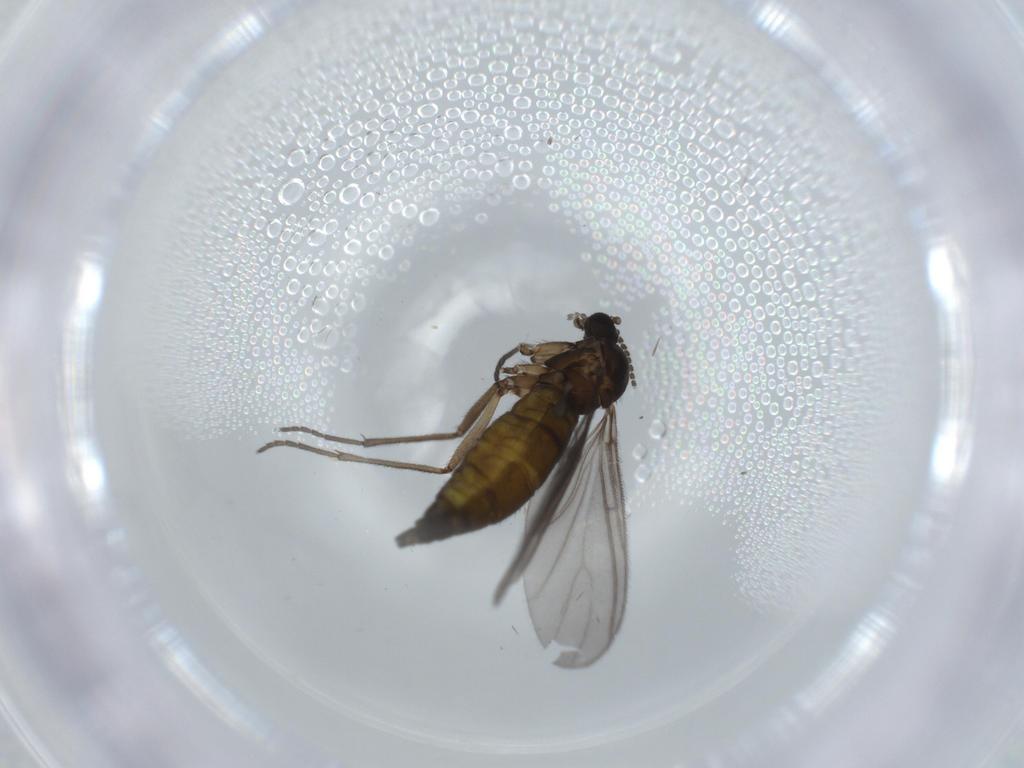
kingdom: Animalia
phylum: Arthropoda
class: Insecta
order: Diptera
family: Sciaridae
